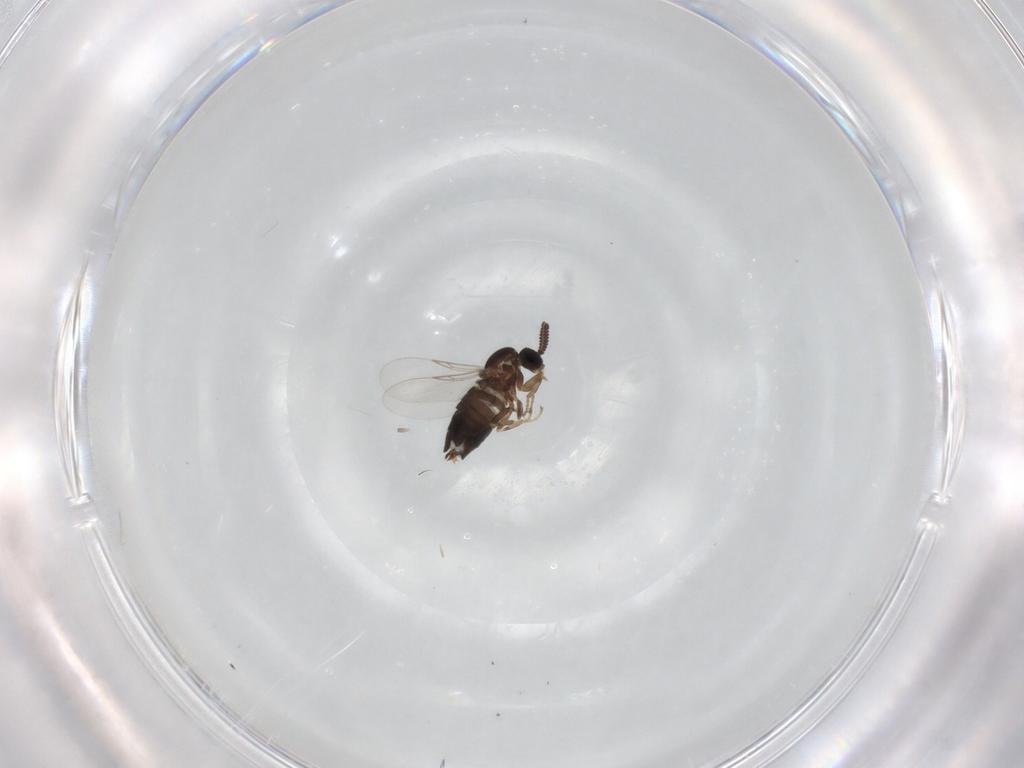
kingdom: Animalia
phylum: Arthropoda
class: Insecta
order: Diptera
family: Scatopsidae
